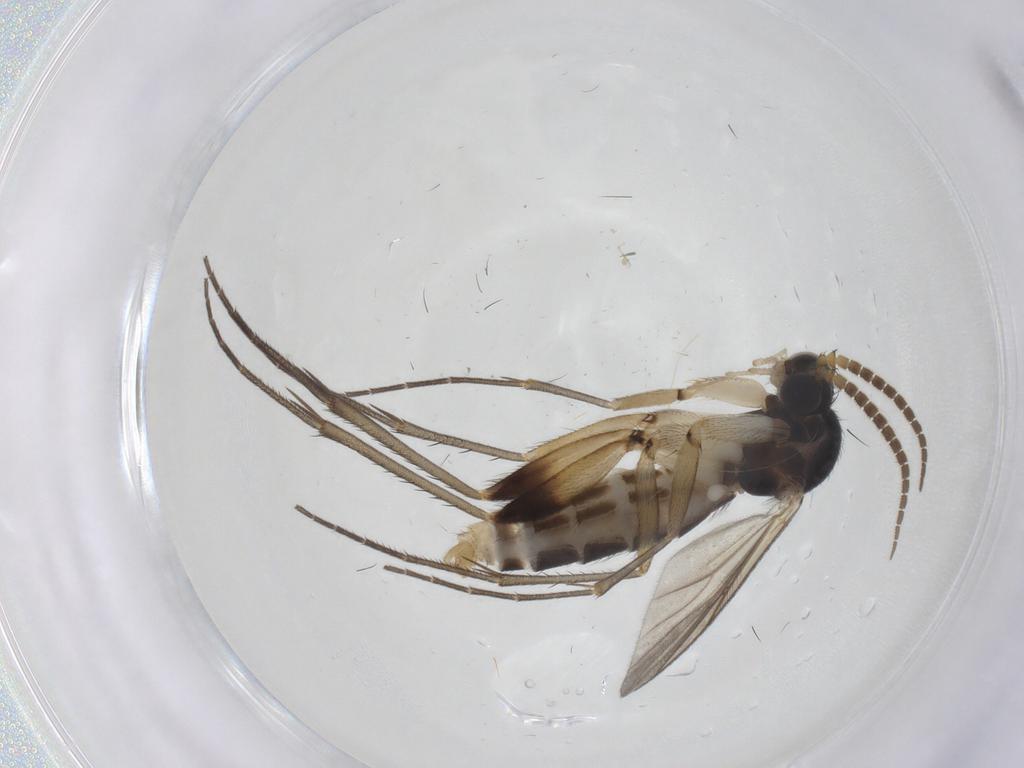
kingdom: Animalia
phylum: Arthropoda
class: Insecta
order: Diptera
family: Mycetophilidae
